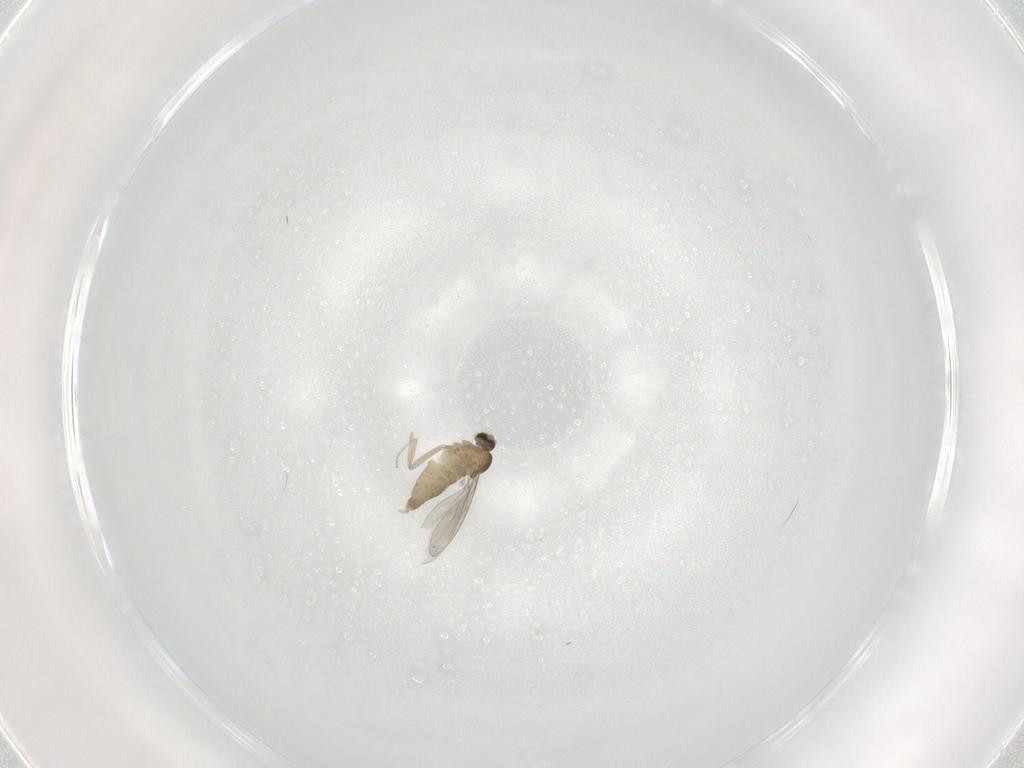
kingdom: Animalia
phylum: Arthropoda
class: Insecta
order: Diptera
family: Cecidomyiidae
